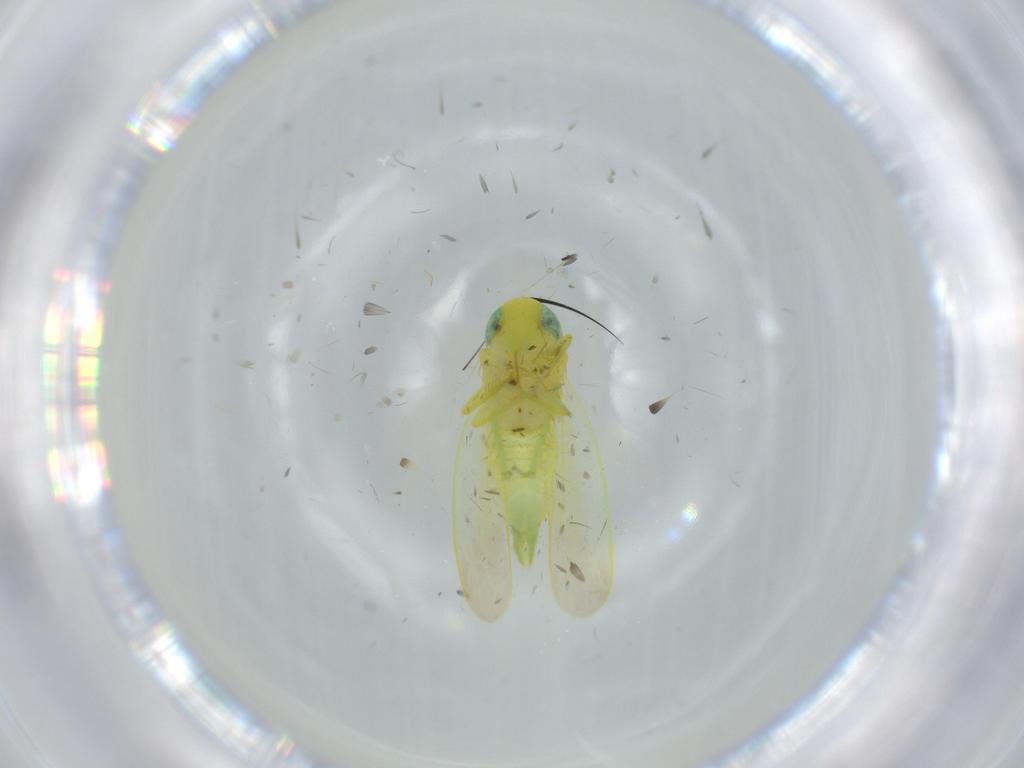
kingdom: Animalia
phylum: Arthropoda
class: Insecta
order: Hemiptera
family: Cicadellidae
